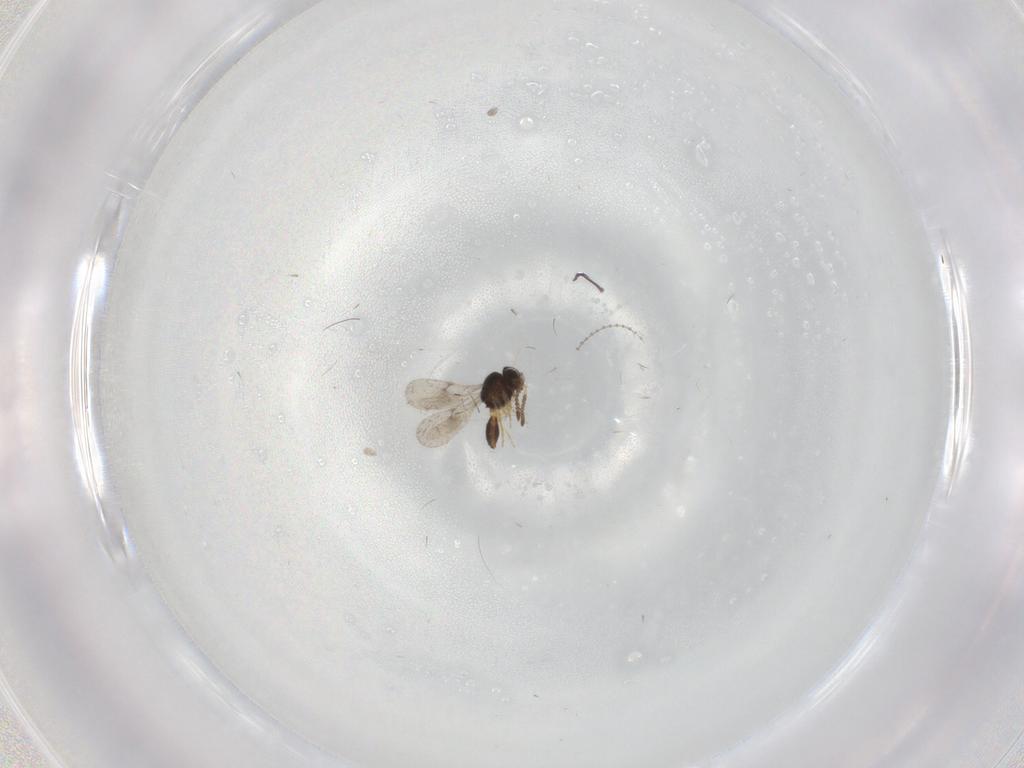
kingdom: Animalia
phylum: Arthropoda
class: Insecta
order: Hymenoptera
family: Scelionidae
